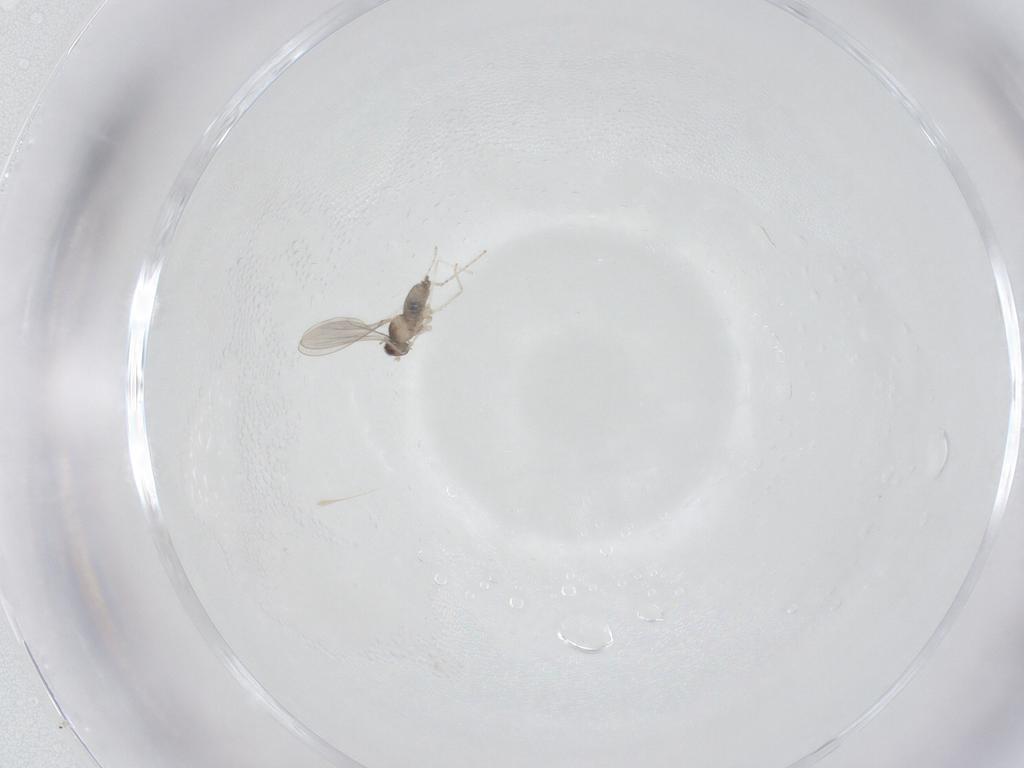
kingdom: Animalia
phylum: Arthropoda
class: Insecta
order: Diptera
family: Cecidomyiidae
